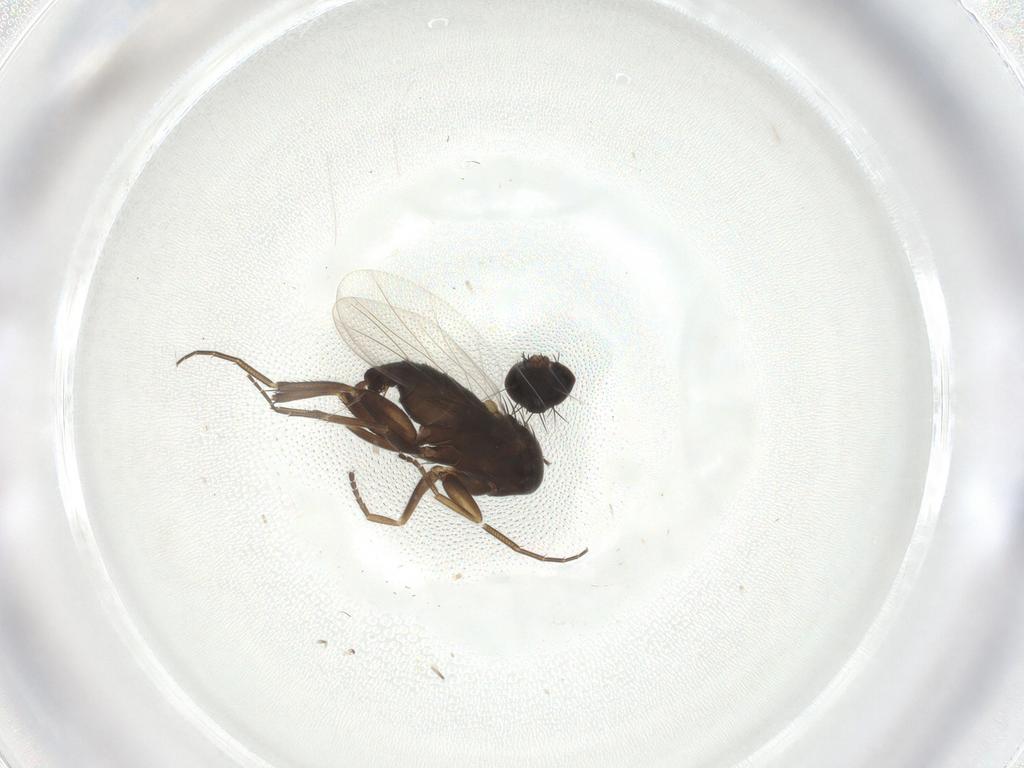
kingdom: Animalia
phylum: Arthropoda
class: Insecta
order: Diptera
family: Phoridae
